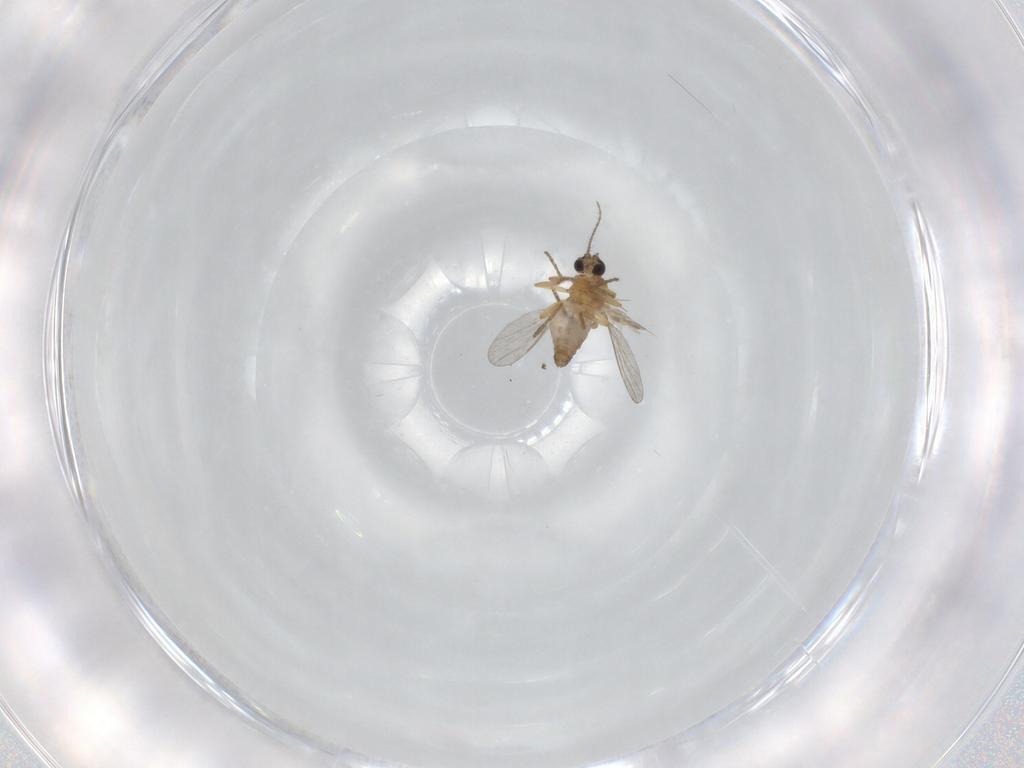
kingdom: Animalia
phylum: Arthropoda
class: Insecta
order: Diptera
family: Ceratopogonidae
